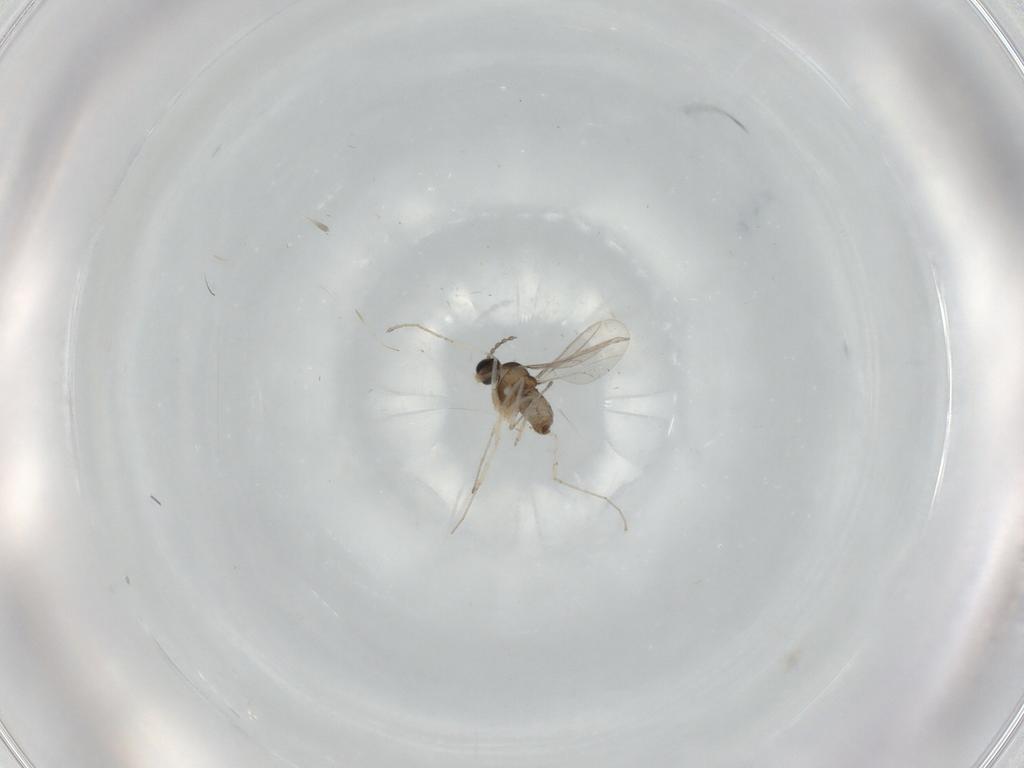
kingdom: Animalia
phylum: Arthropoda
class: Insecta
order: Diptera
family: Cecidomyiidae
